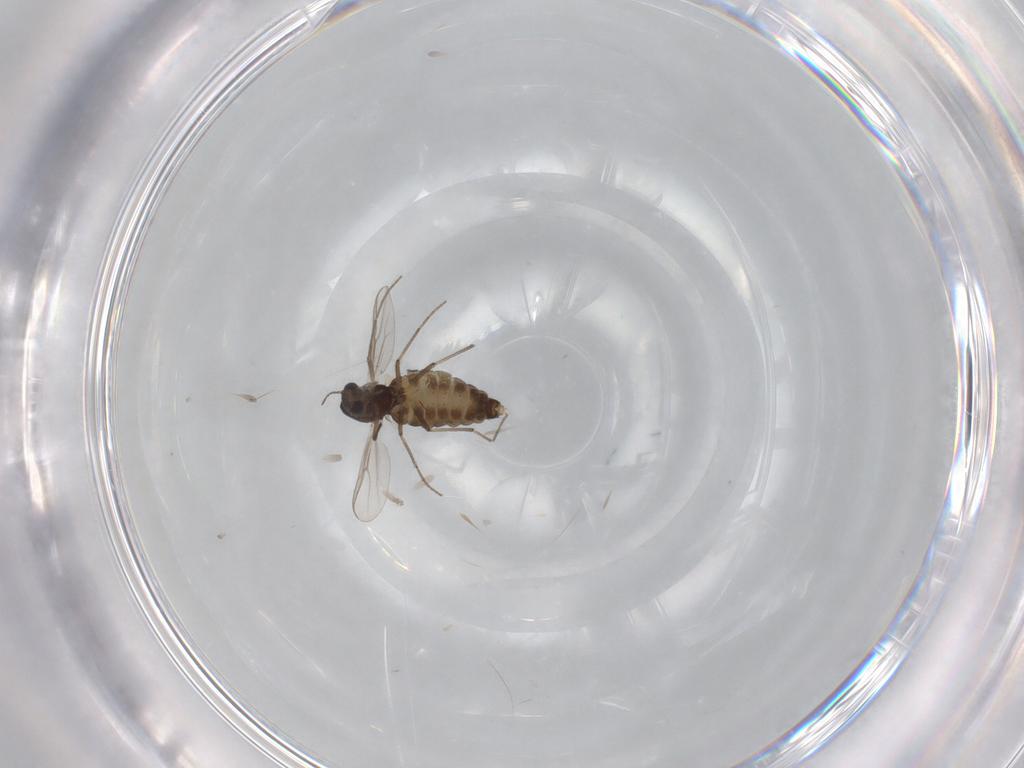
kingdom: Animalia
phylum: Arthropoda
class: Insecta
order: Diptera
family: Chironomidae
